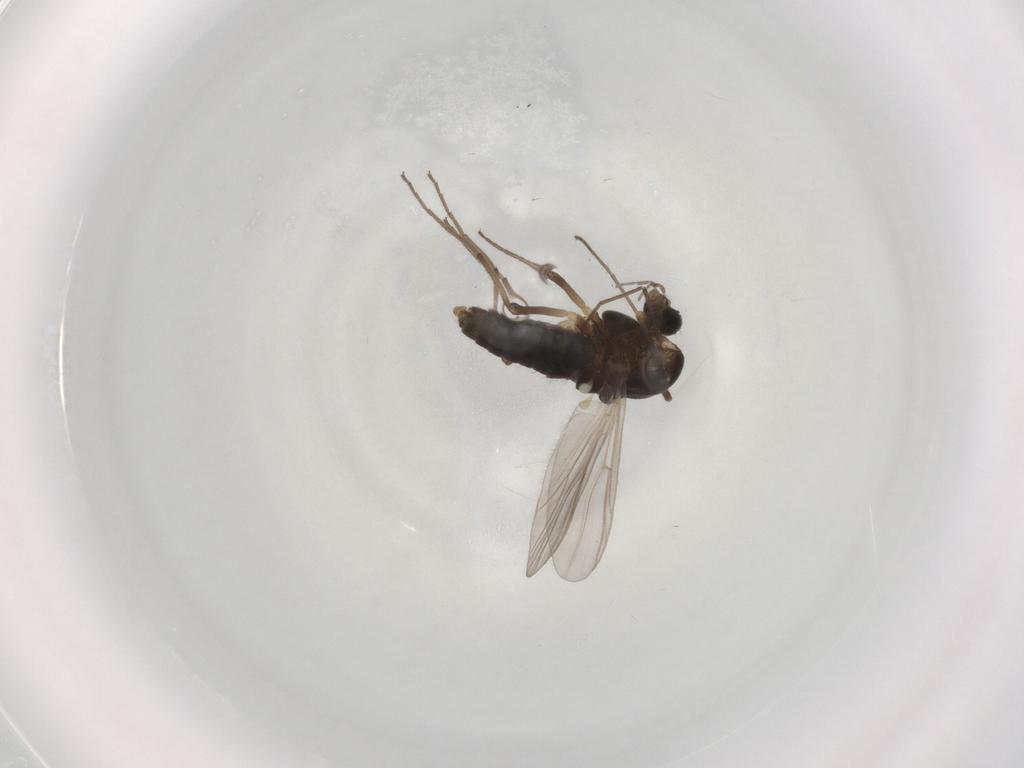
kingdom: Animalia
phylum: Arthropoda
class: Insecta
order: Diptera
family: Chironomidae
